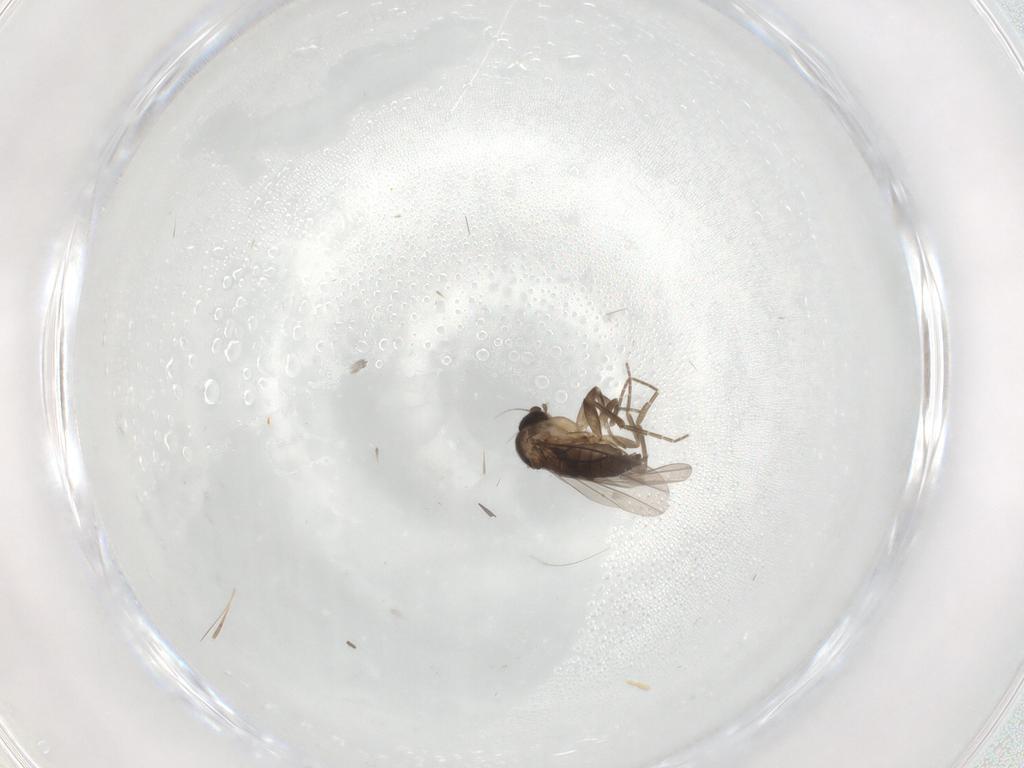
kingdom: Animalia
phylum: Arthropoda
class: Insecta
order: Diptera
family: Phoridae
